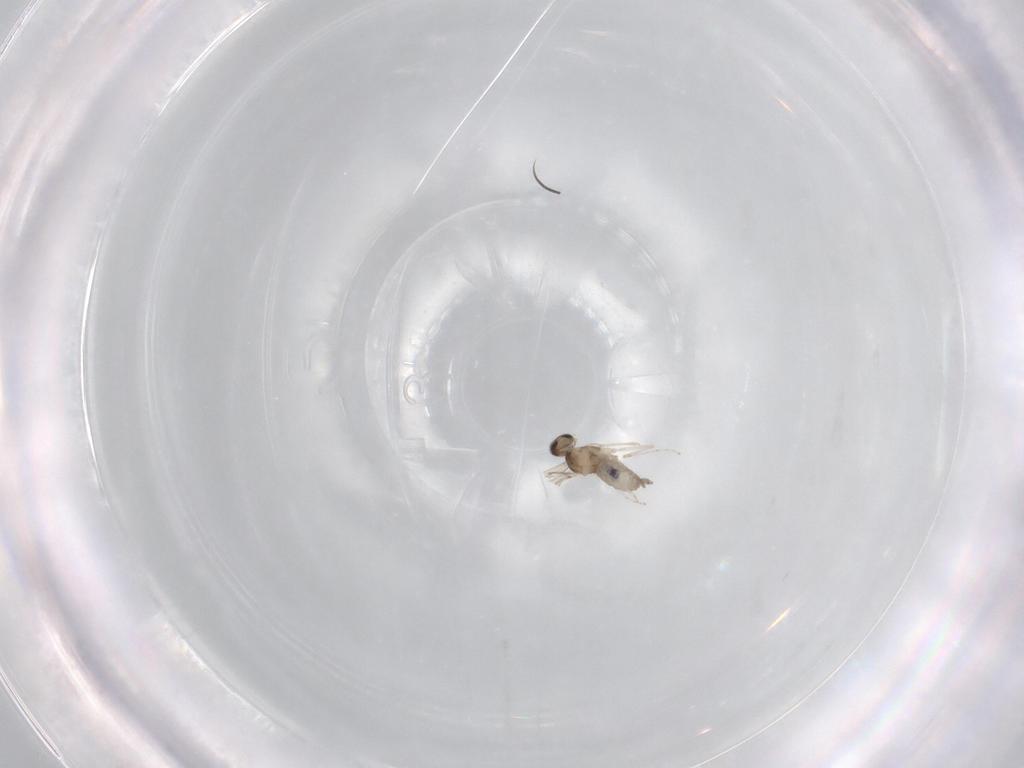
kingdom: Animalia
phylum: Arthropoda
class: Insecta
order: Diptera
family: Cecidomyiidae
